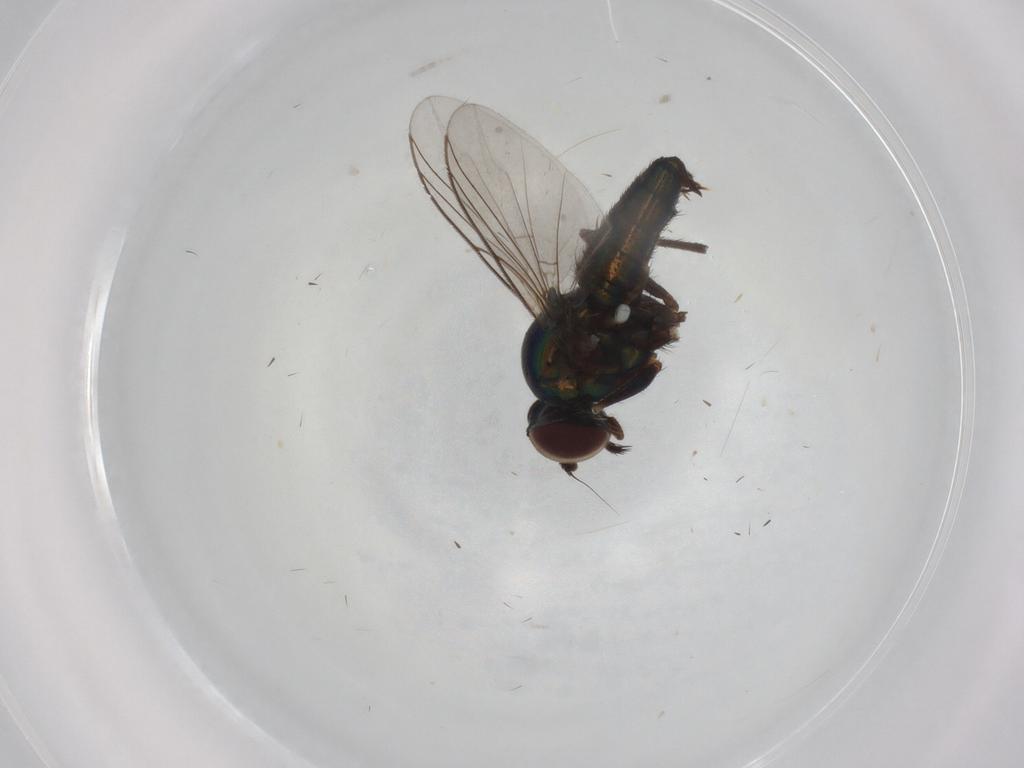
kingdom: Animalia
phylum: Arthropoda
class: Insecta
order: Diptera
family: Dolichopodidae
